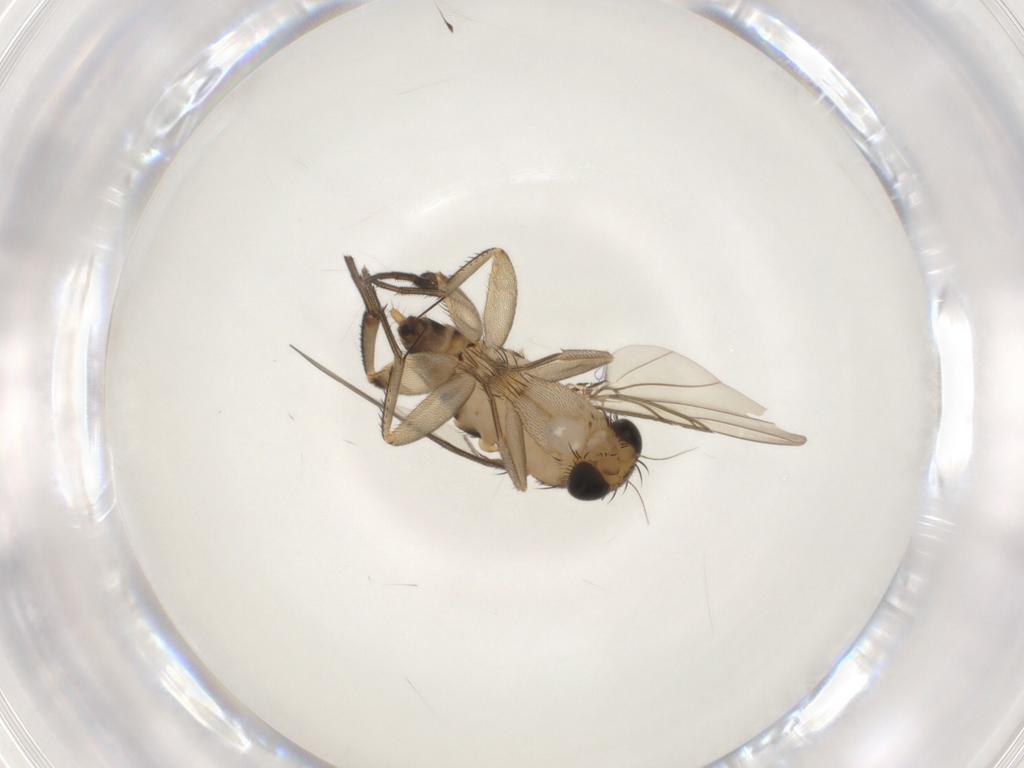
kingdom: Animalia
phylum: Arthropoda
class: Insecta
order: Diptera
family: Phoridae
